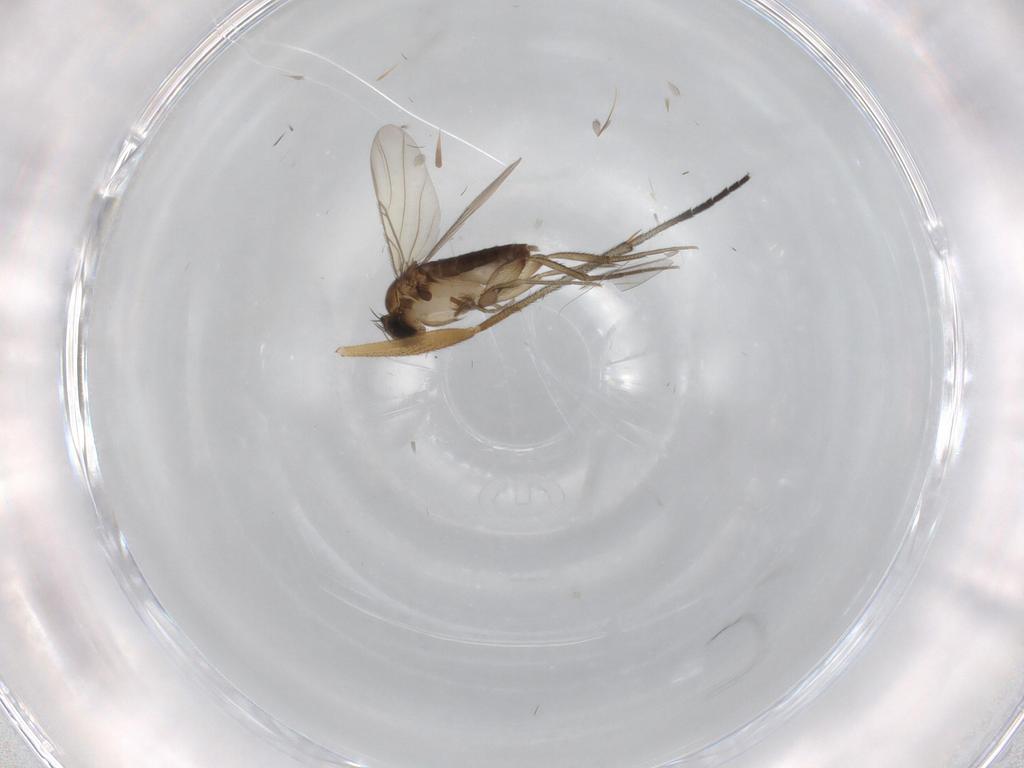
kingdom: Animalia
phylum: Arthropoda
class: Insecta
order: Diptera
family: Phoridae
